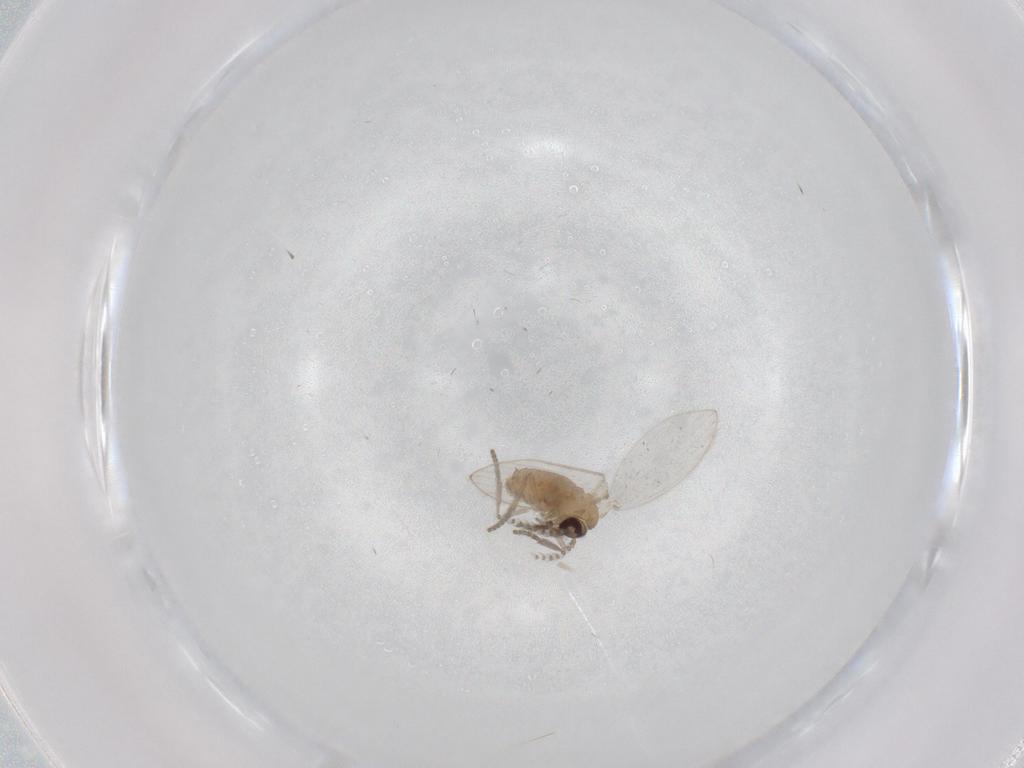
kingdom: Animalia
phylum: Arthropoda
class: Insecta
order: Diptera
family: Psychodidae
